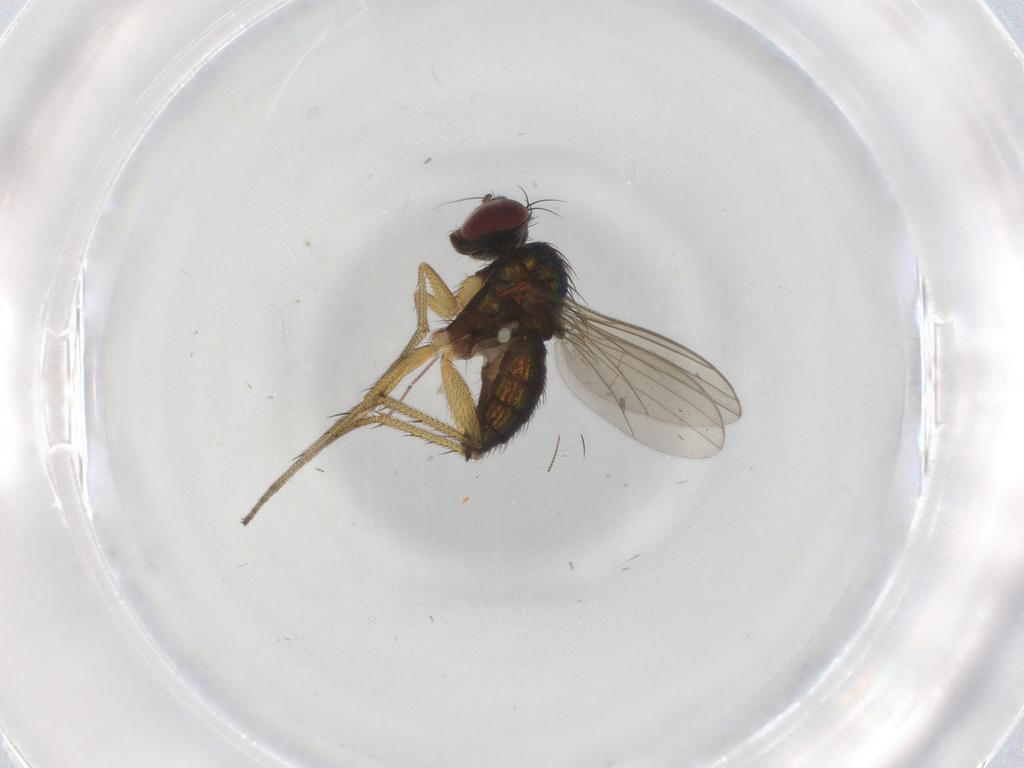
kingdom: Animalia
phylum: Arthropoda
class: Insecta
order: Diptera
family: Dolichopodidae
